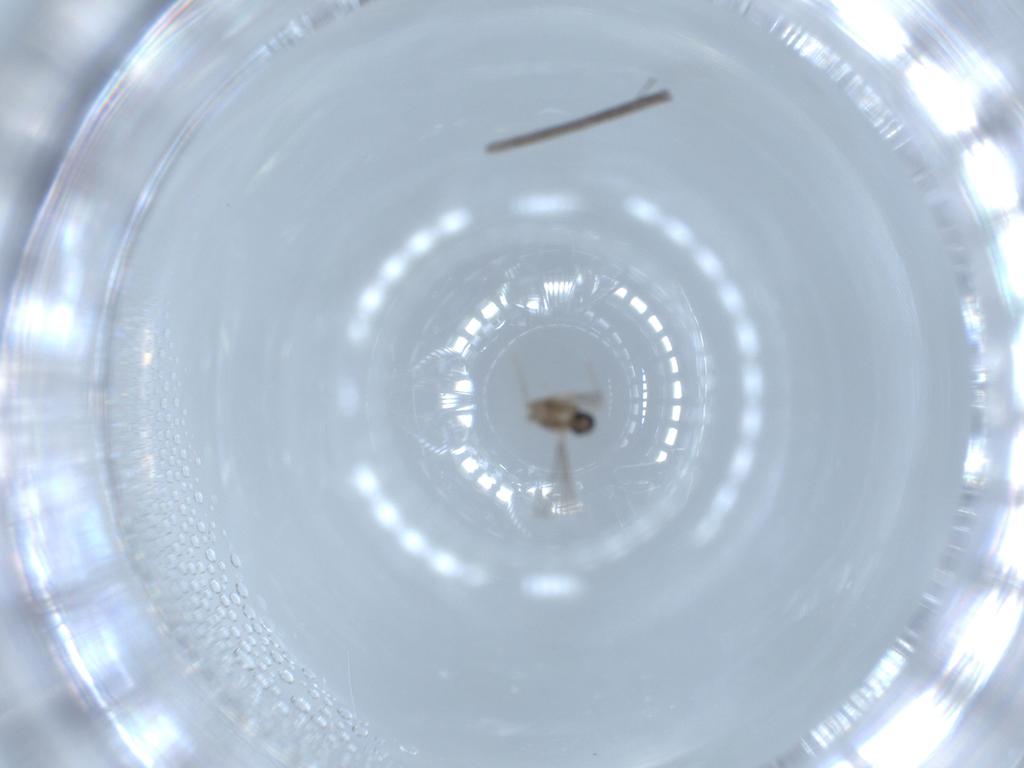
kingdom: Animalia
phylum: Arthropoda
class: Insecta
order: Diptera
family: Cecidomyiidae
